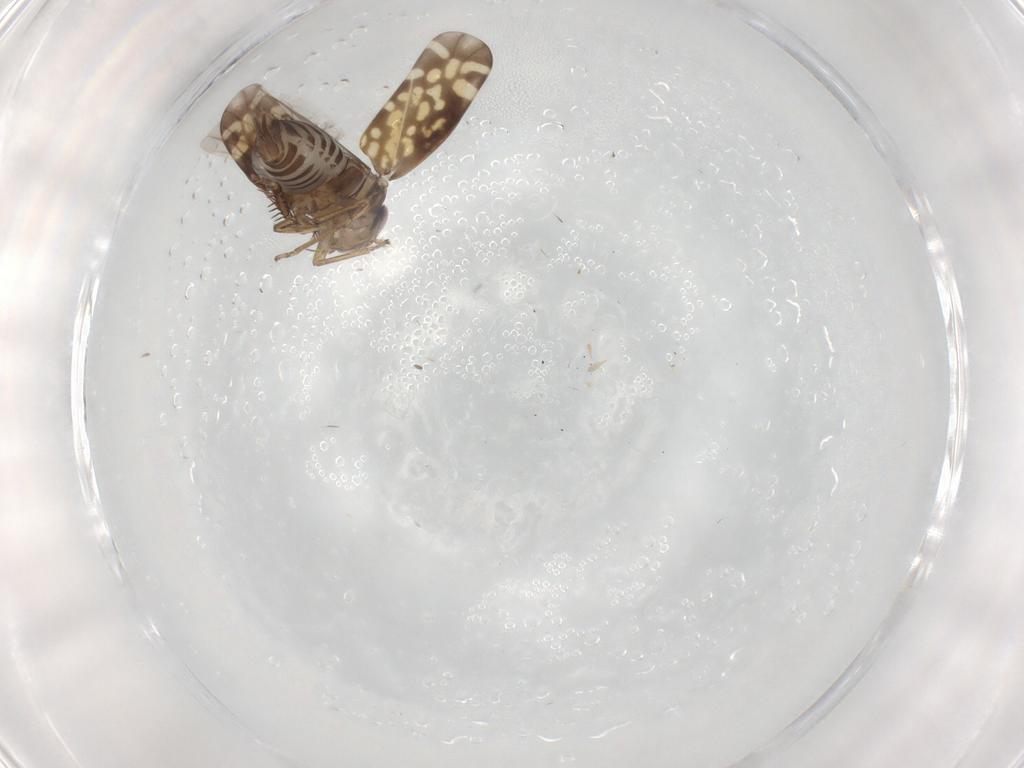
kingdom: Animalia
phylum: Arthropoda
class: Insecta
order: Hemiptera
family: Cicadellidae
